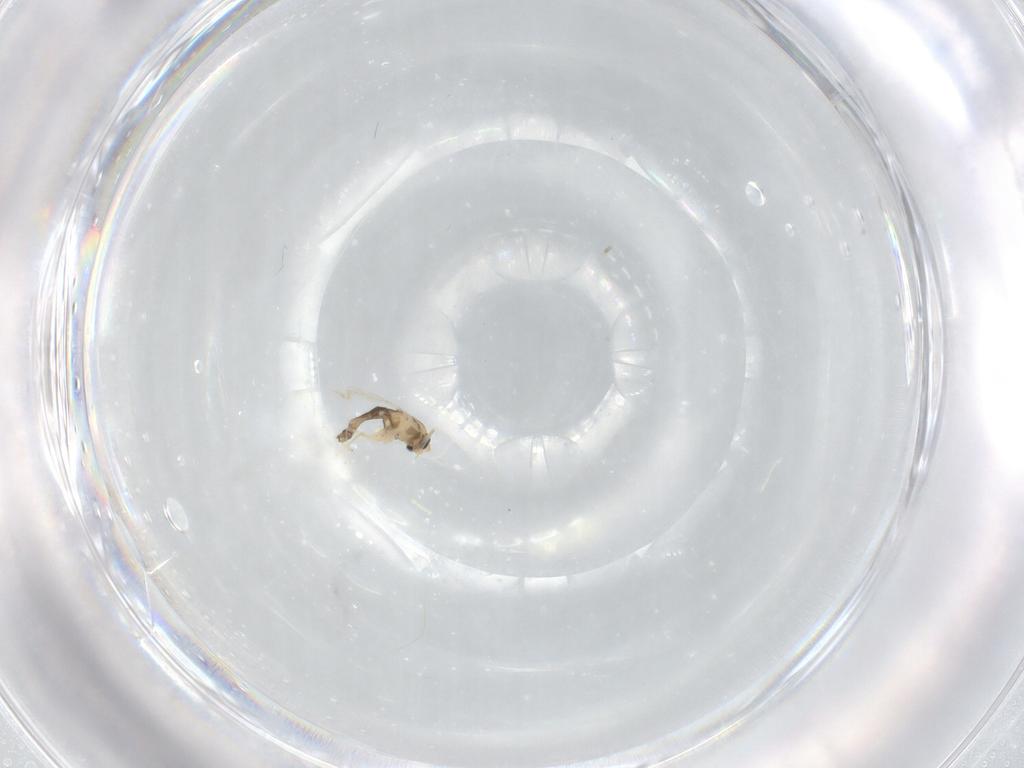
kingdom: Animalia
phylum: Arthropoda
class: Insecta
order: Diptera
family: Chironomidae
